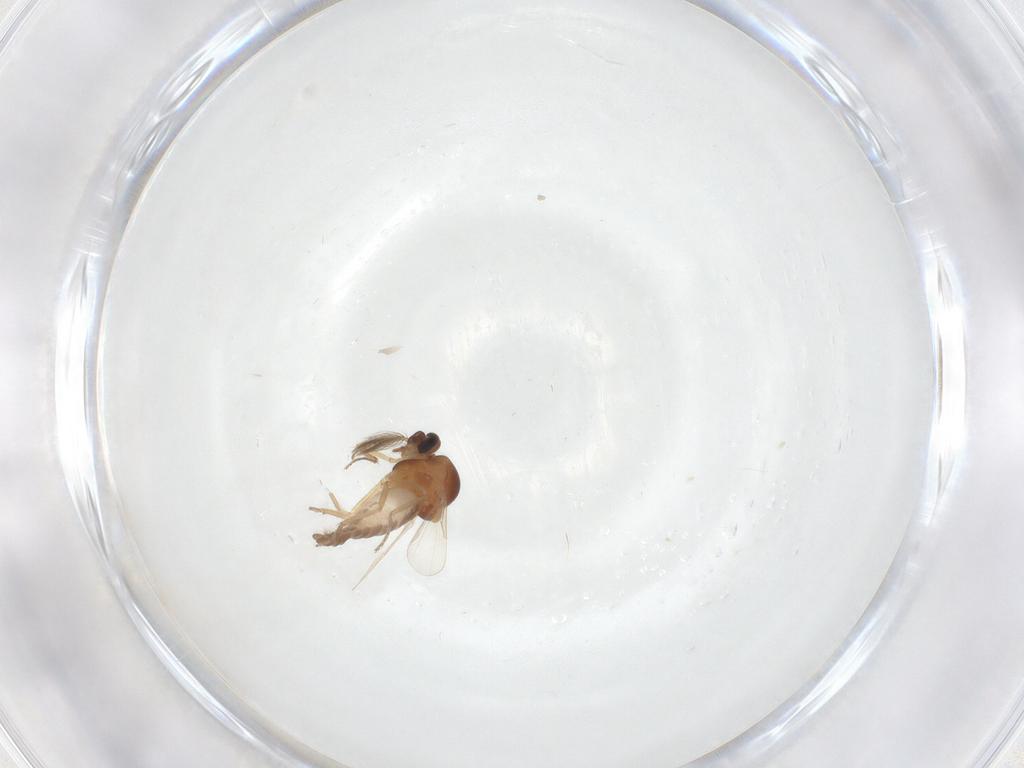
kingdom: Animalia
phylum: Arthropoda
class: Insecta
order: Diptera
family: Ceratopogonidae
